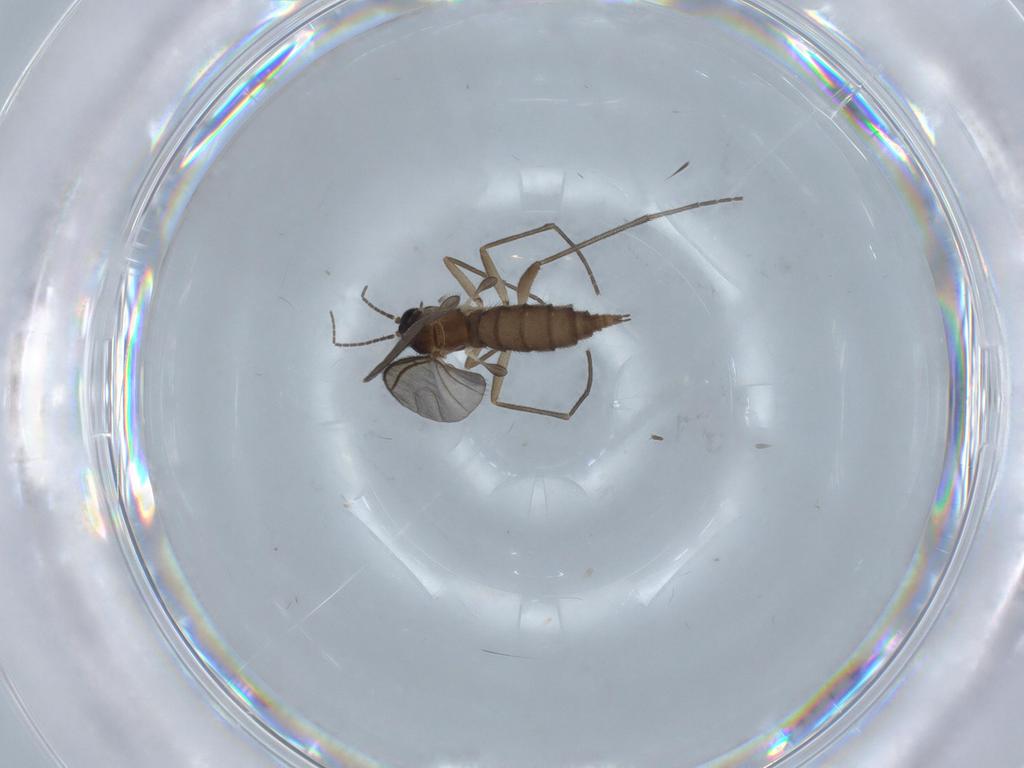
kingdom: Animalia
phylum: Arthropoda
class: Insecta
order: Diptera
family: Sciaridae
